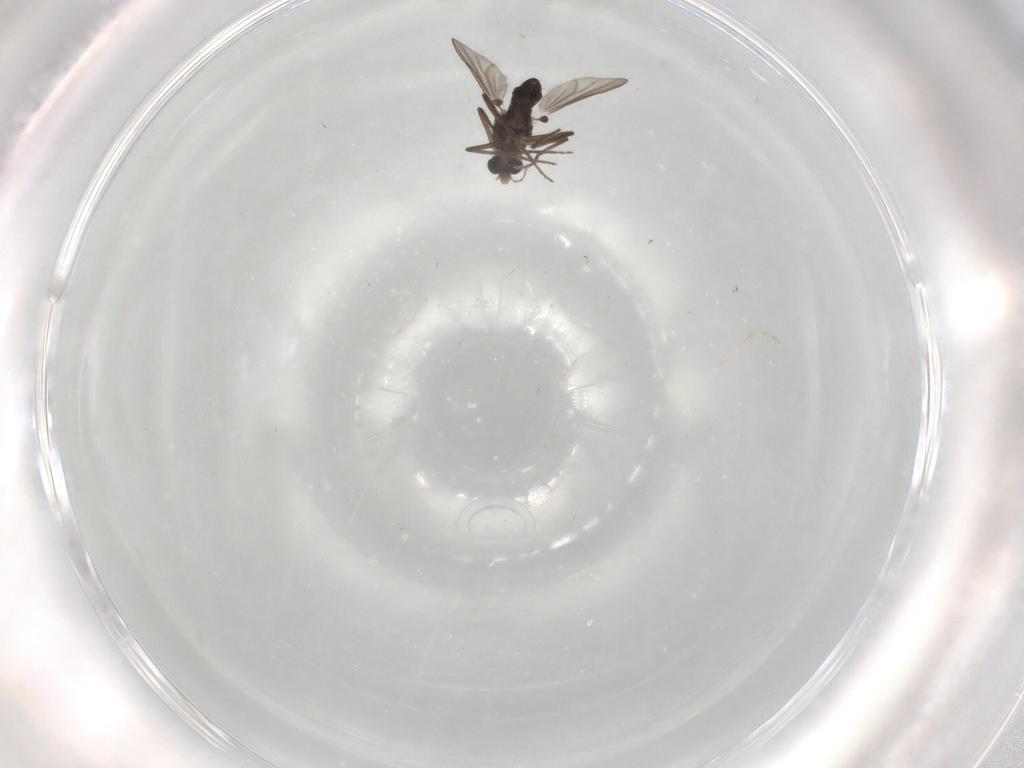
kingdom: Animalia
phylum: Arthropoda
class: Insecta
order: Diptera
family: Chironomidae
